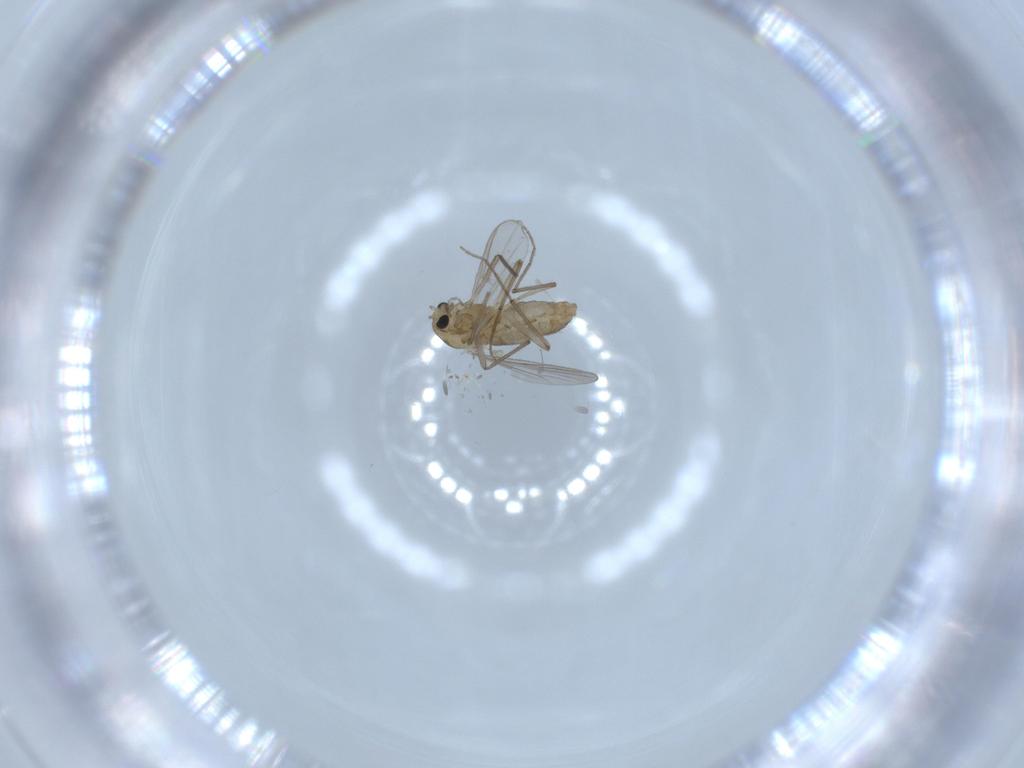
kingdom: Animalia
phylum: Arthropoda
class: Insecta
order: Diptera
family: Chironomidae
